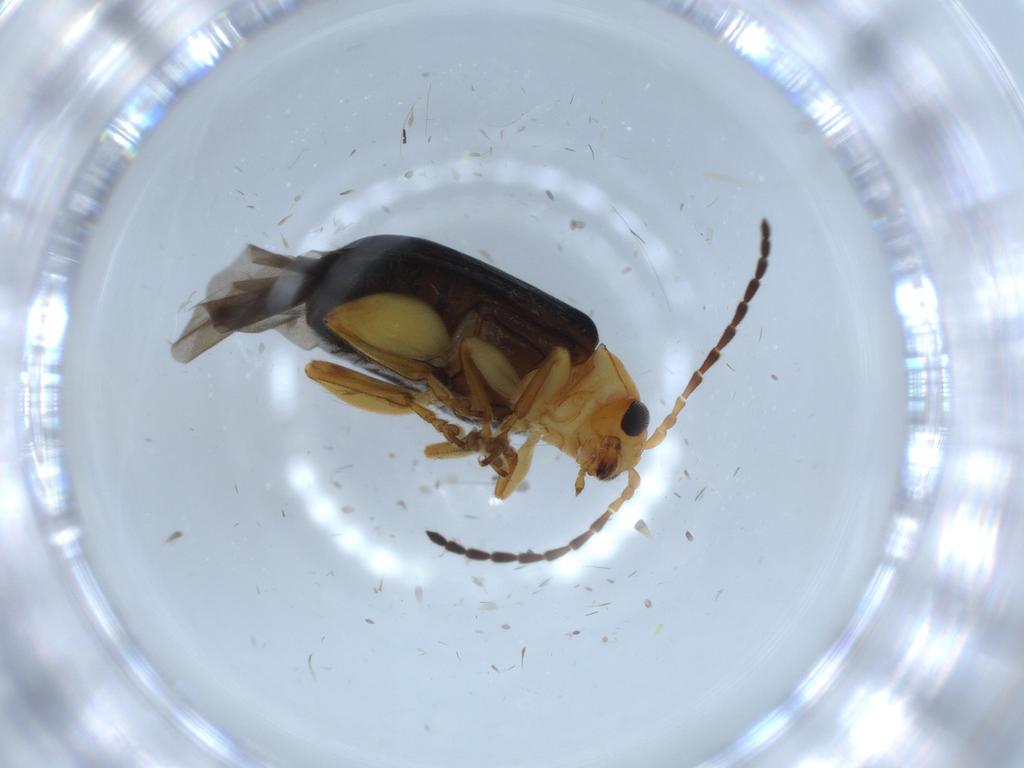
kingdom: Animalia
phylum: Arthropoda
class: Insecta
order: Coleoptera
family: Chrysomelidae
